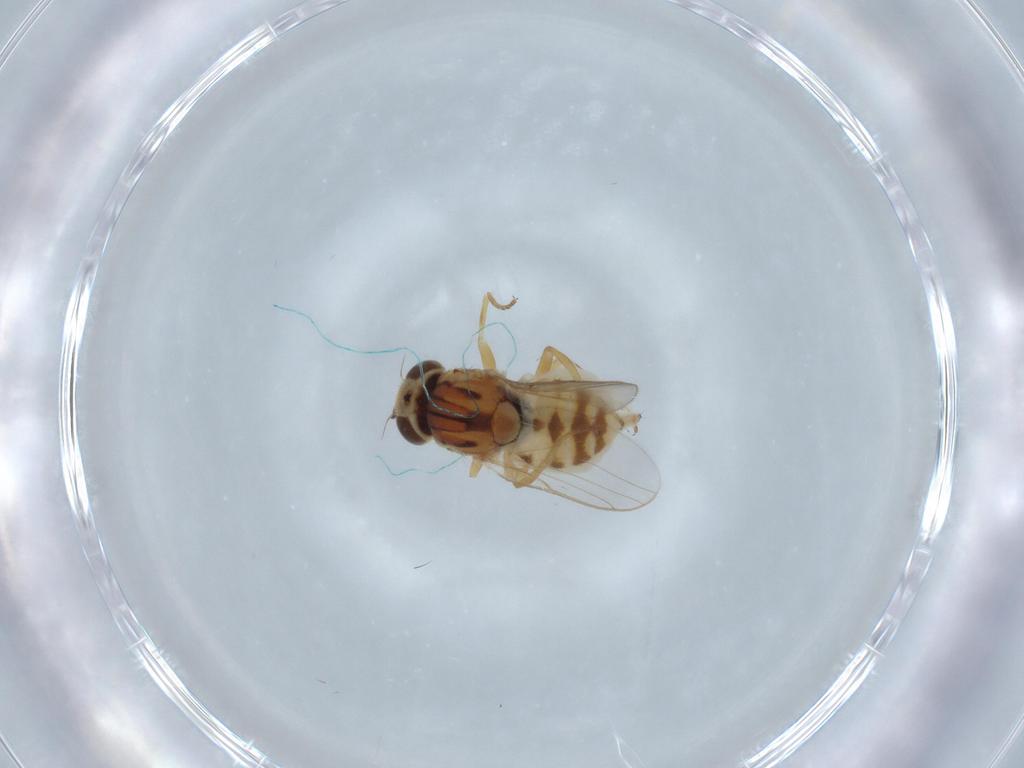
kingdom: Animalia
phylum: Arthropoda
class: Insecta
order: Diptera
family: Chloropidae
